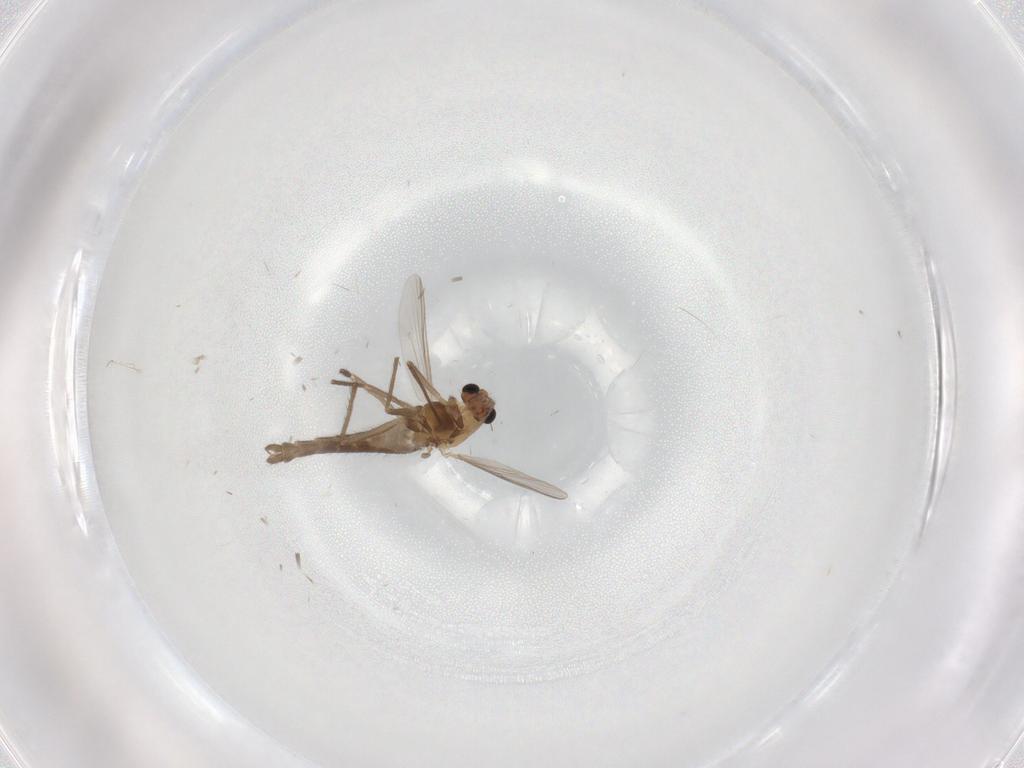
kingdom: Animalia
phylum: Arthropoda
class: Insecta
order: Diptera
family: Chironomidae
